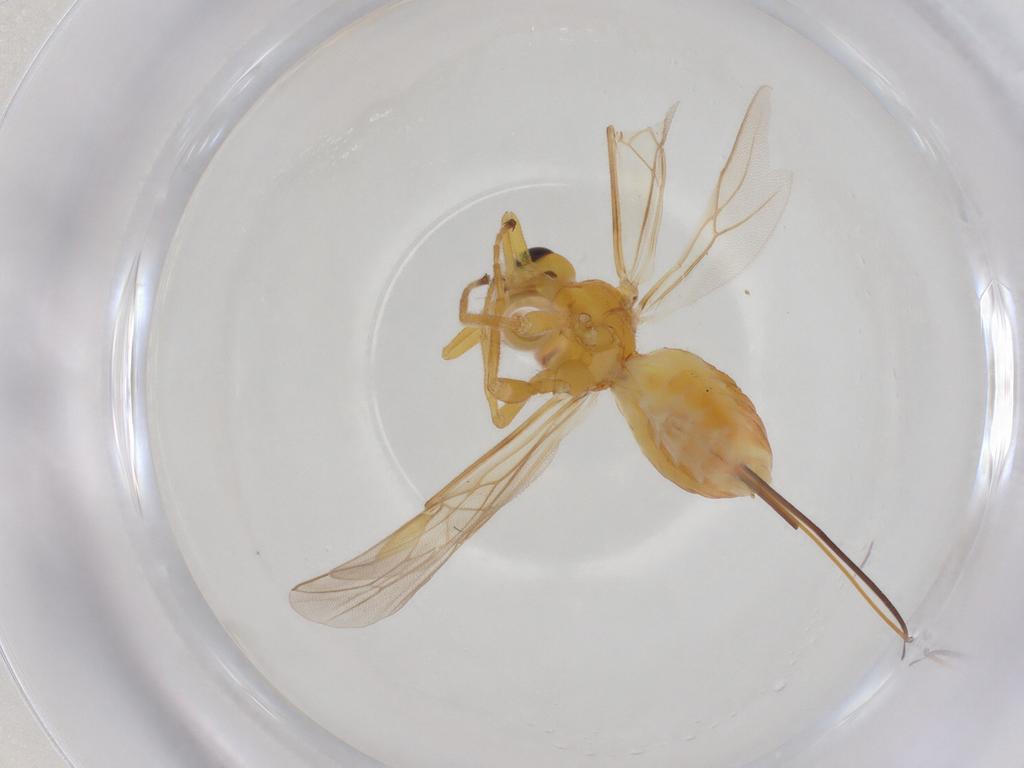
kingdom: Animalia
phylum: Arthropoda
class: Insecta
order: Hymenoptera
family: Braconidae
